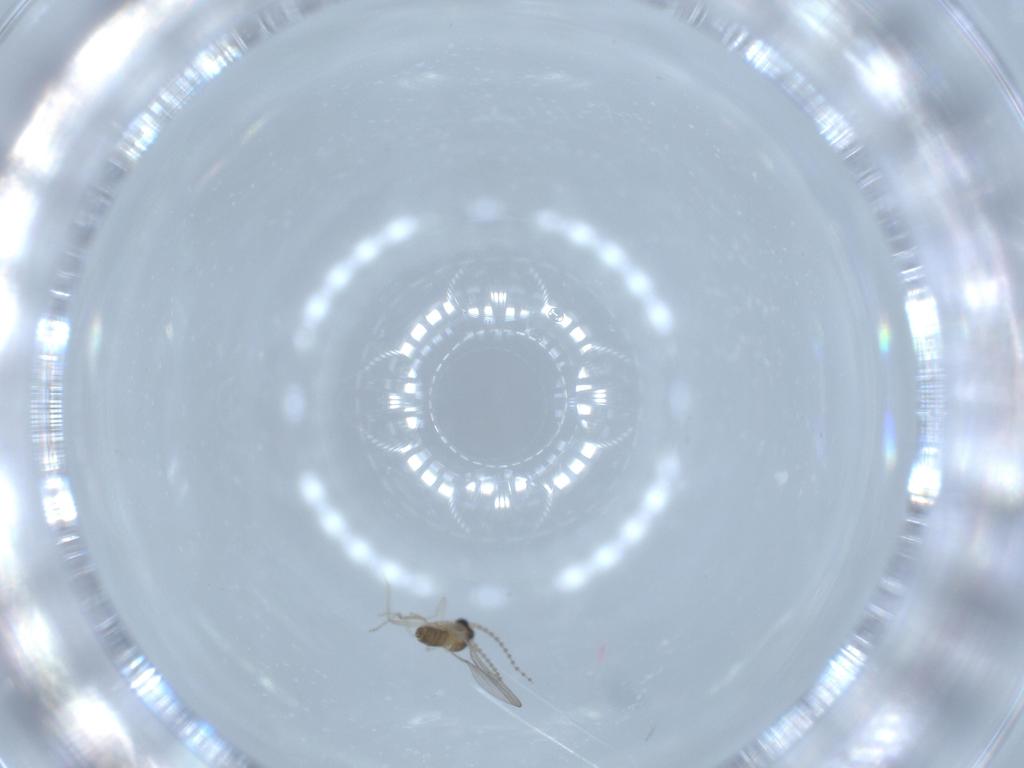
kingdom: Animalia
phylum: Arthropoda
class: Insecta
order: Diptera
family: Cecidomyiidae
